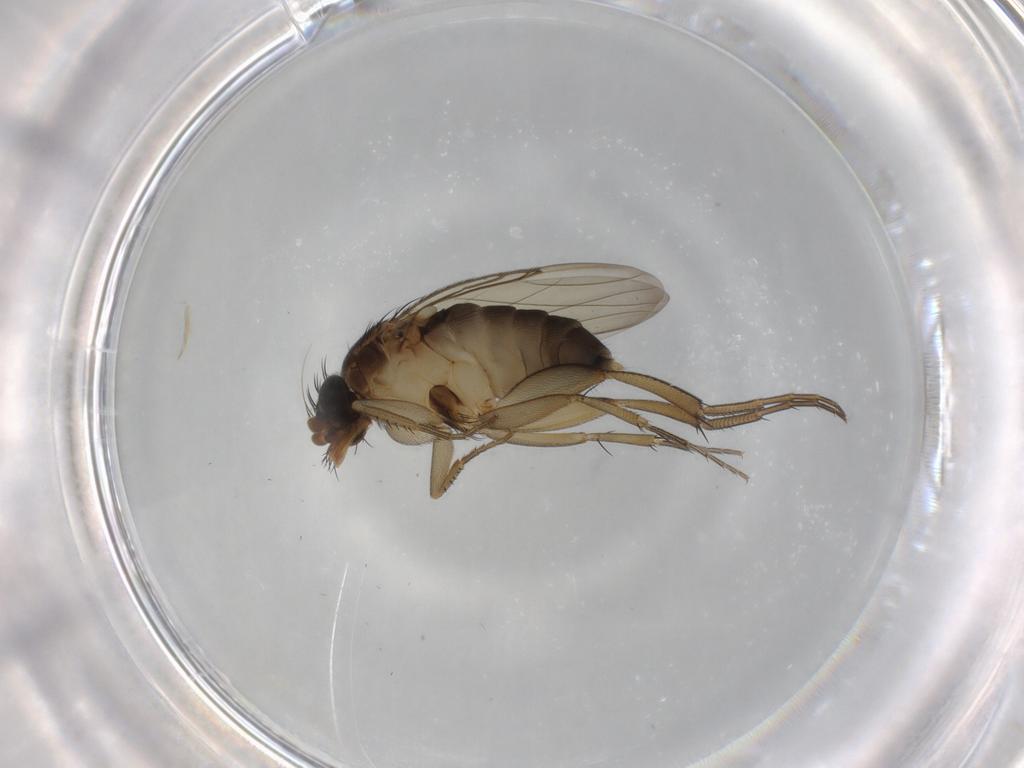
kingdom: Animalia
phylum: Arthropoda
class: Insecta
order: Diptera
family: Phoridae
